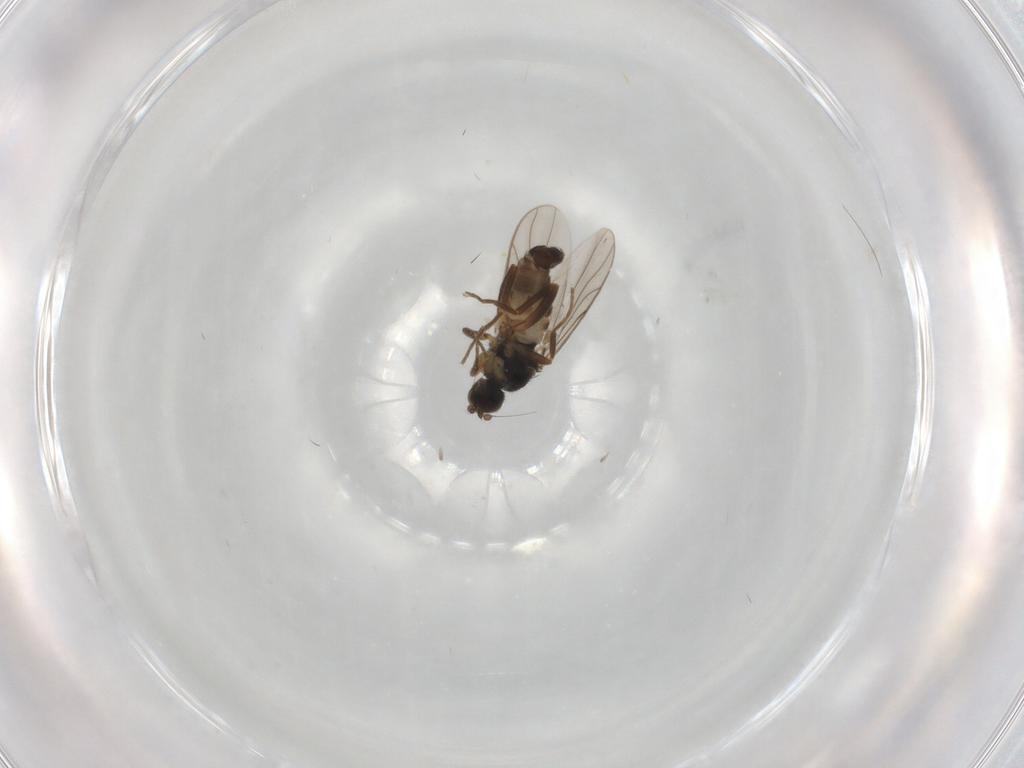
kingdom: Animalia
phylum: Arthropoda
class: Insecta
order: Diptera
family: Hybotidae
